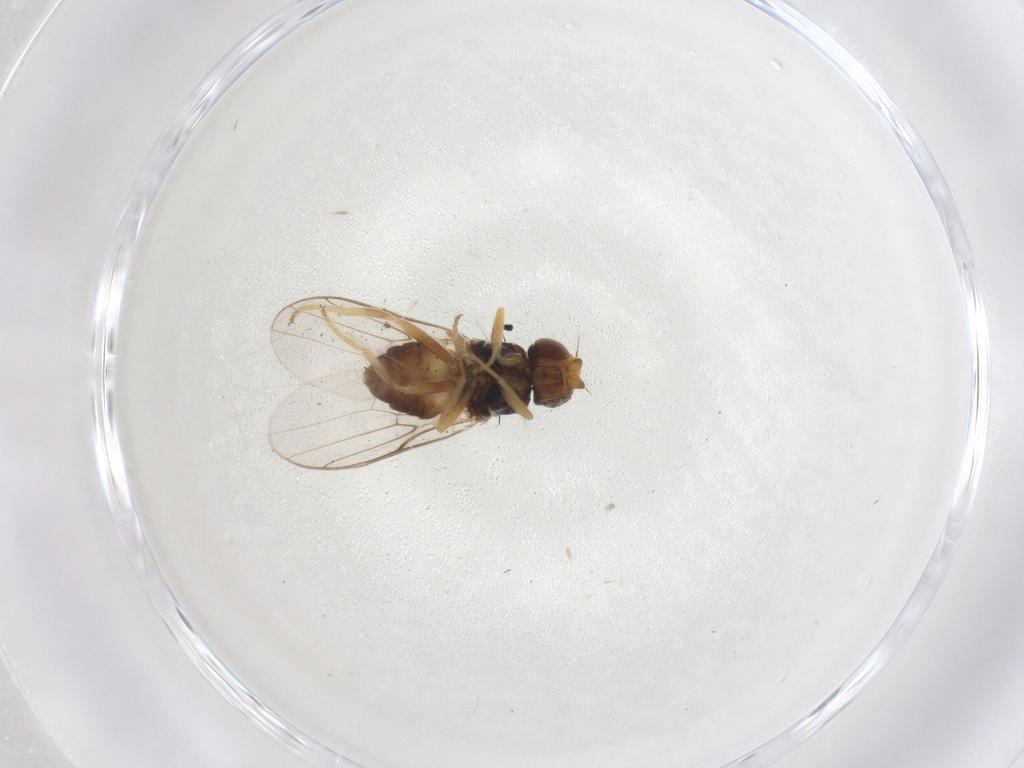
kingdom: Animalia
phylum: Arthropoda
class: Insecta
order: Diptera
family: Chloropidae
